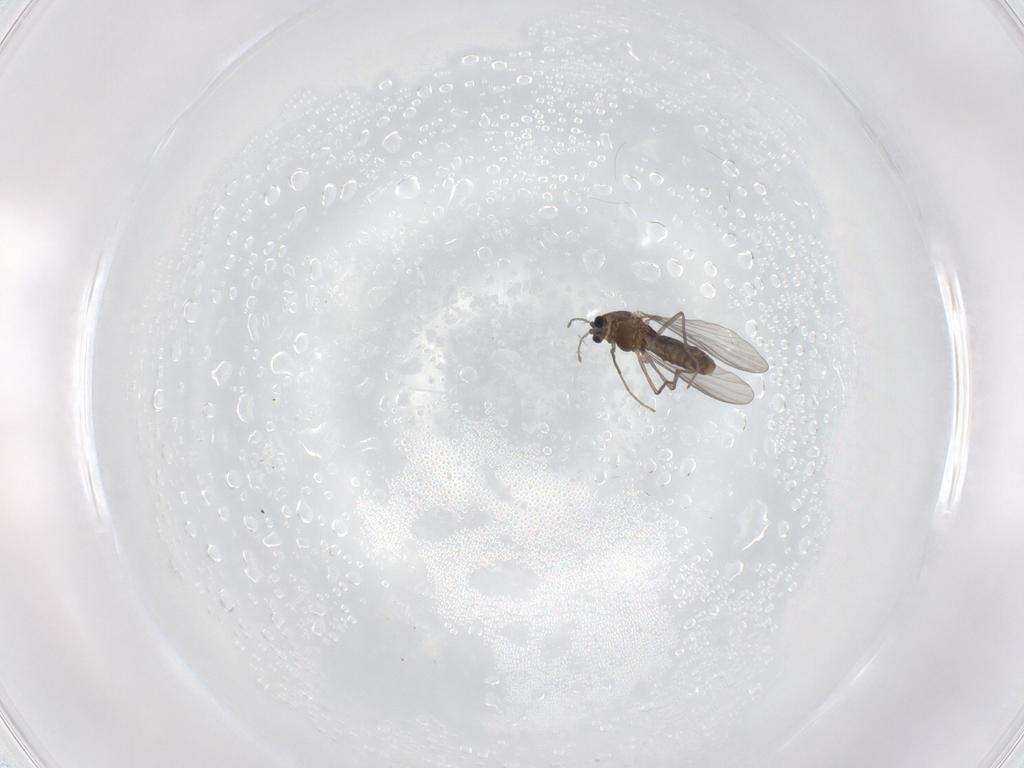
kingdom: Animalia
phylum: Arthropoda
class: Insecta
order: Diptera
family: Chironomidae
